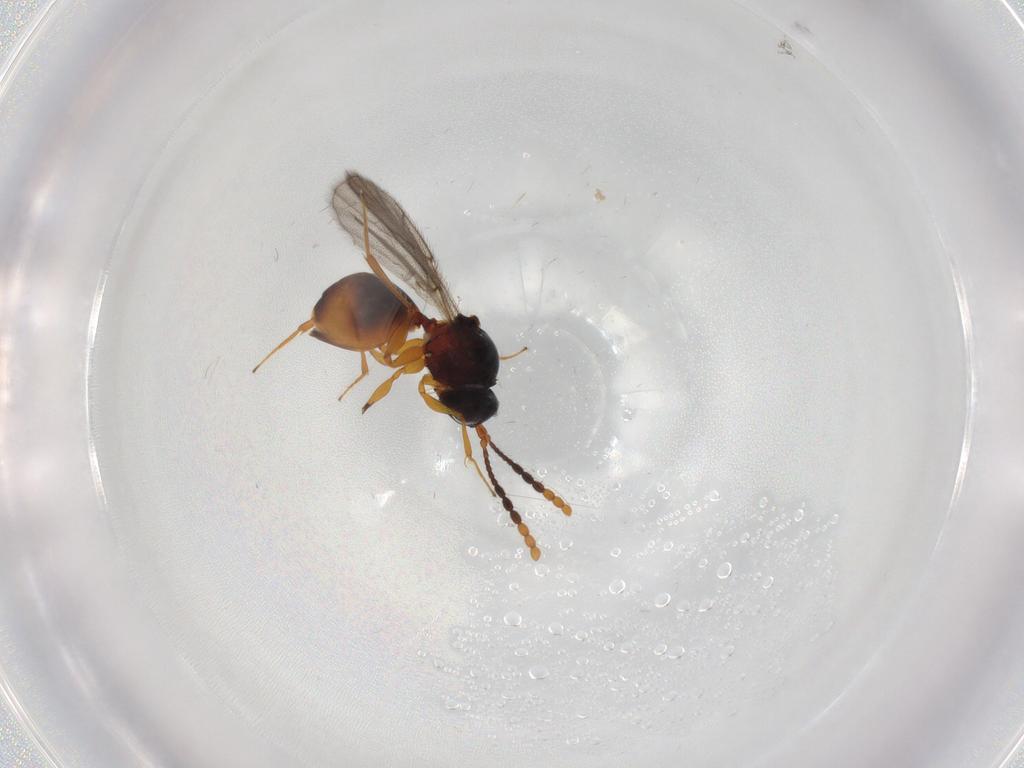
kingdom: Animalia
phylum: Arthropoda
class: Insecta
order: Hymenoptera
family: Figitidae
